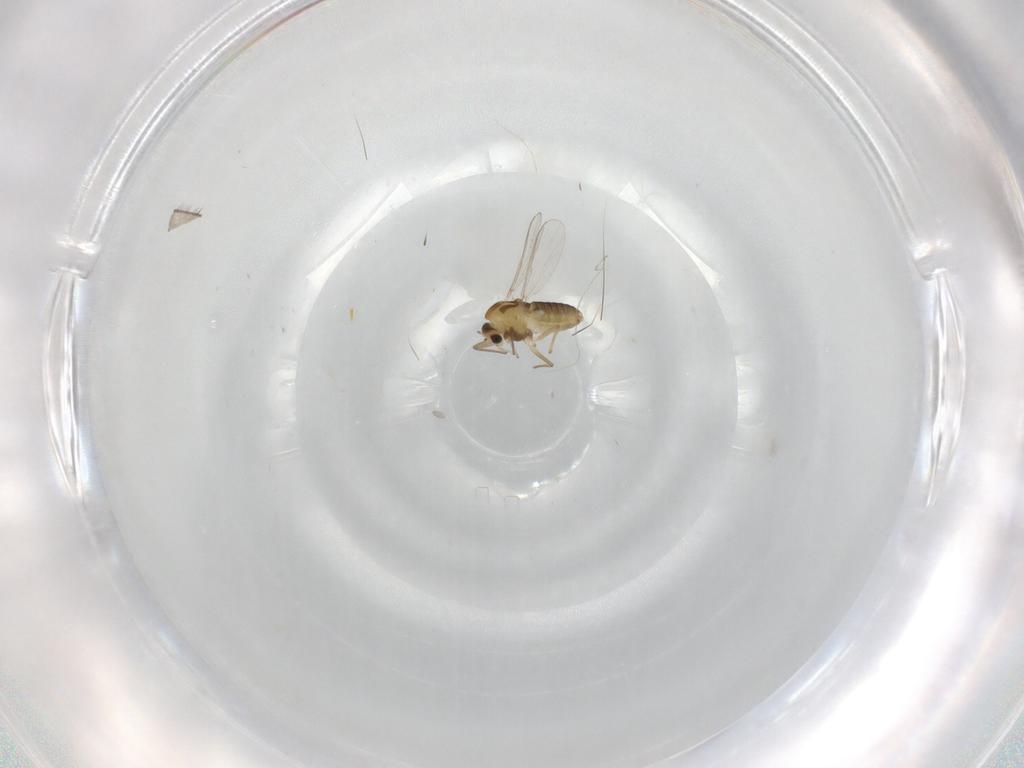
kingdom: Animalia
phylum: Arthropoda
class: Insecta
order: Diptera
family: Chironomidae
